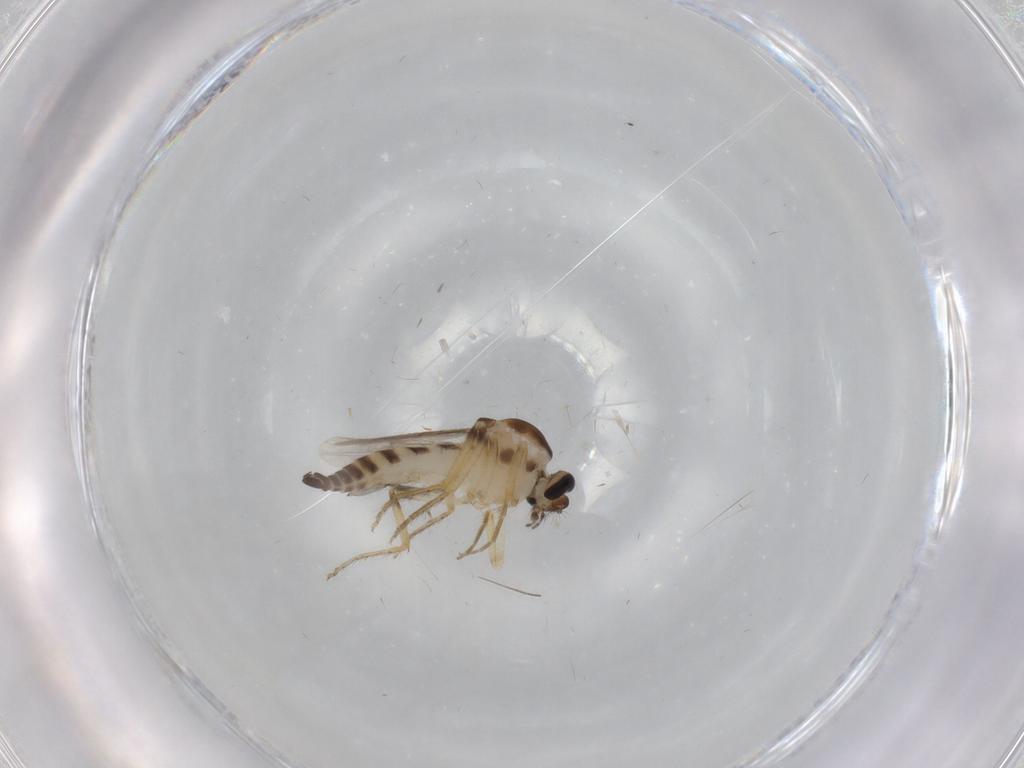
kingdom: Animalia
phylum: Arthropoda
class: Insecta
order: Diptera
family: Sciaridae
